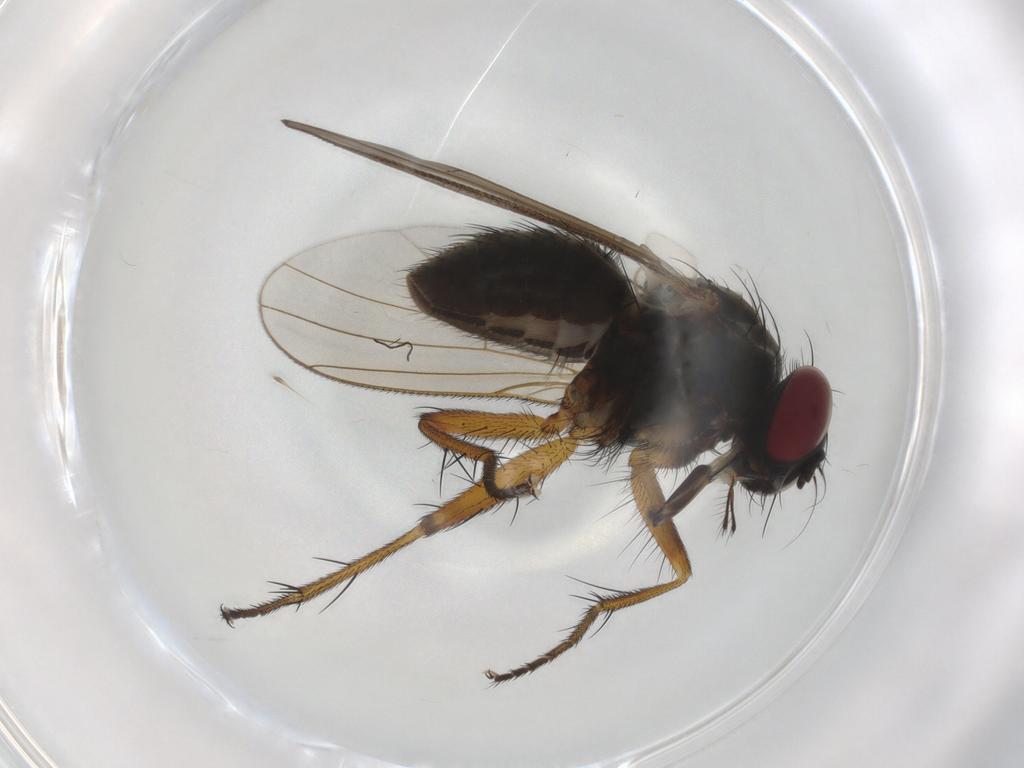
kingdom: Animalia
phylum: Arthropoda
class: Insecta
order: Diptera
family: Muscidae
